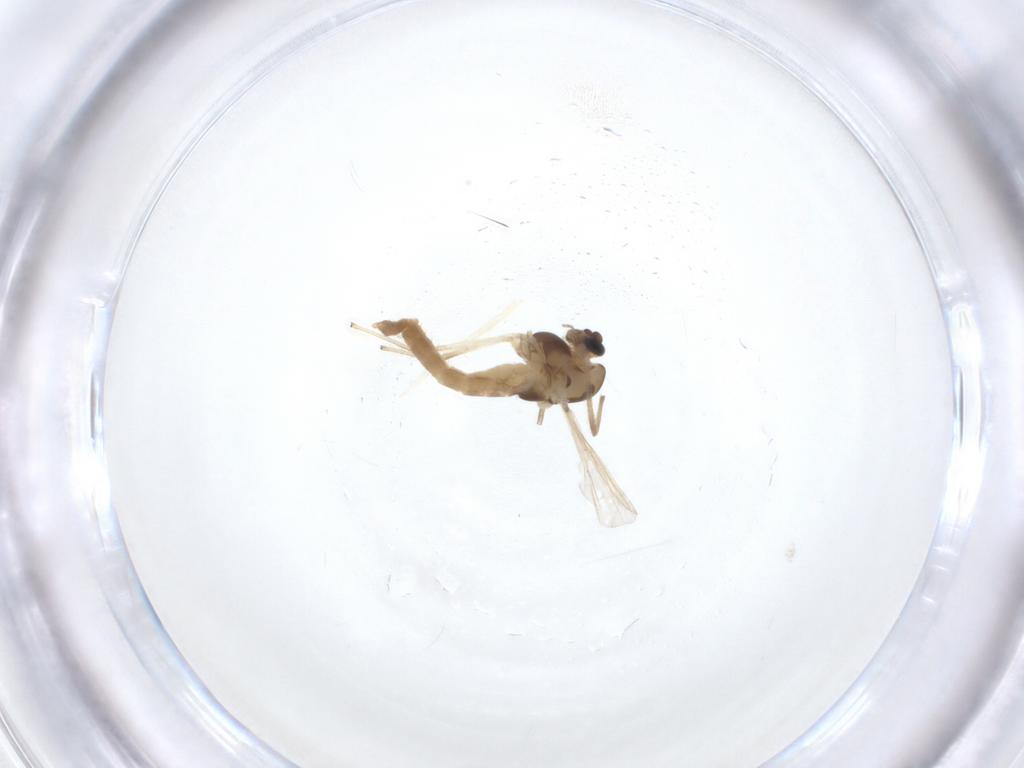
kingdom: Animalia
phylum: Arthropoda
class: Insecta
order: Diptera
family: Chironomidae
